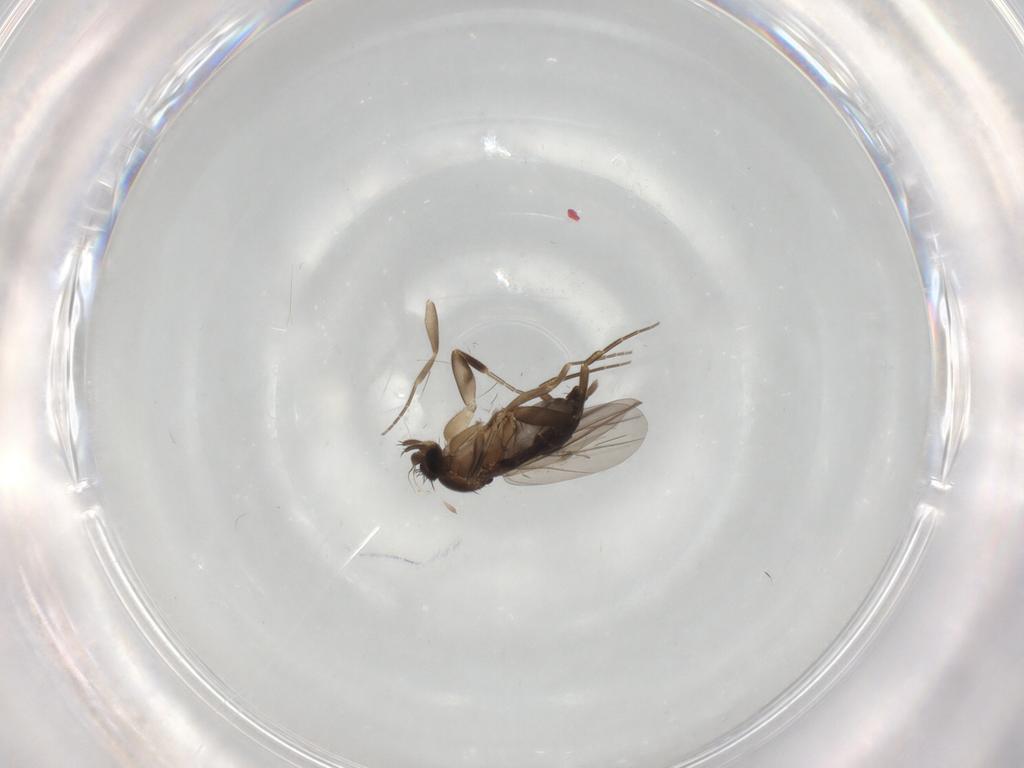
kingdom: Animalia
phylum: Arthropoda
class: Insecta
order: Diptera
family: Phoridae
